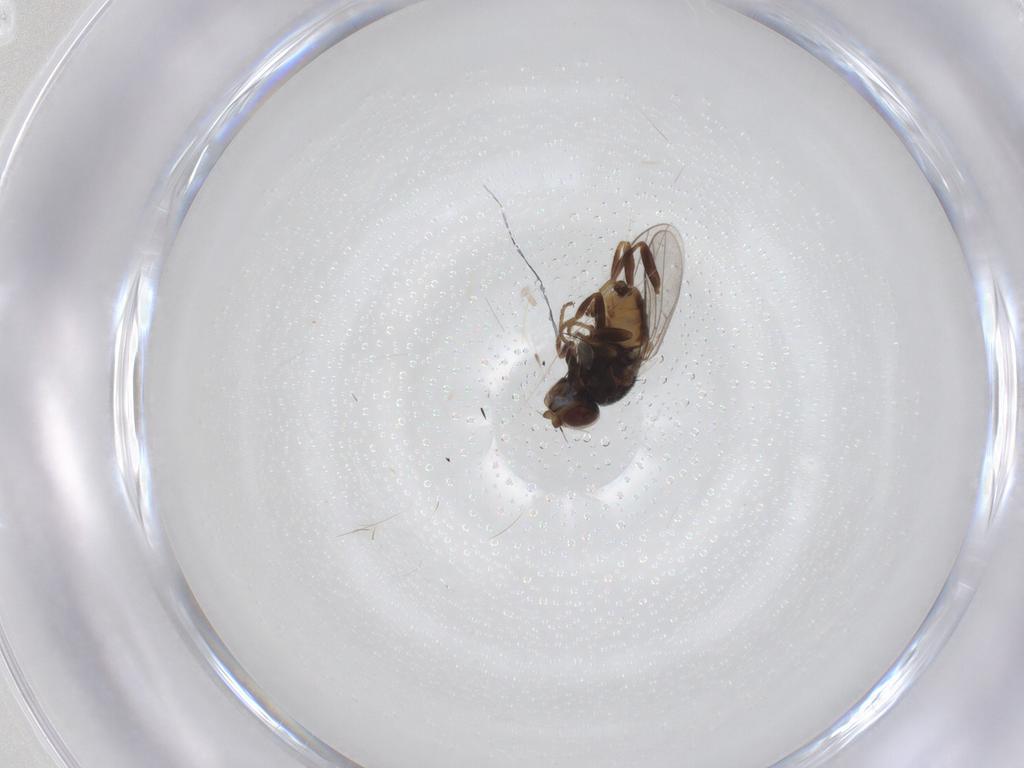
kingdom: Animalia
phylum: Arthropoda
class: Insecta
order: Diptera
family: Chloropidae
